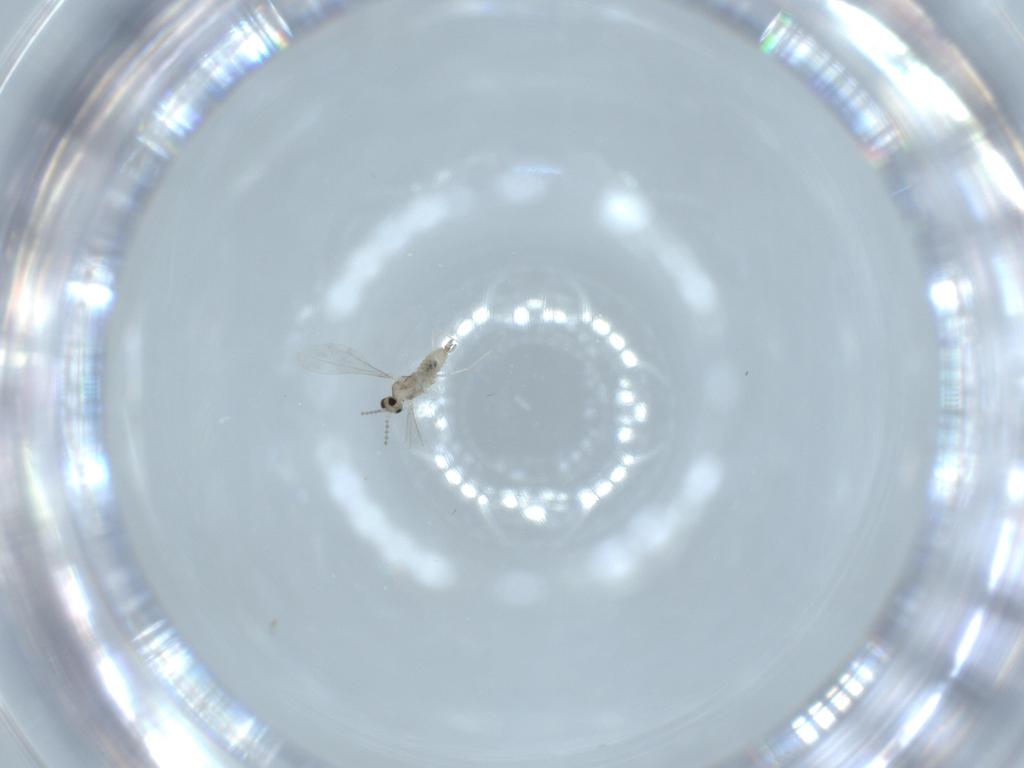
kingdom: Animalia
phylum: Arthropoda
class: Insecta
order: Diptera
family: Cecidomyiidae
